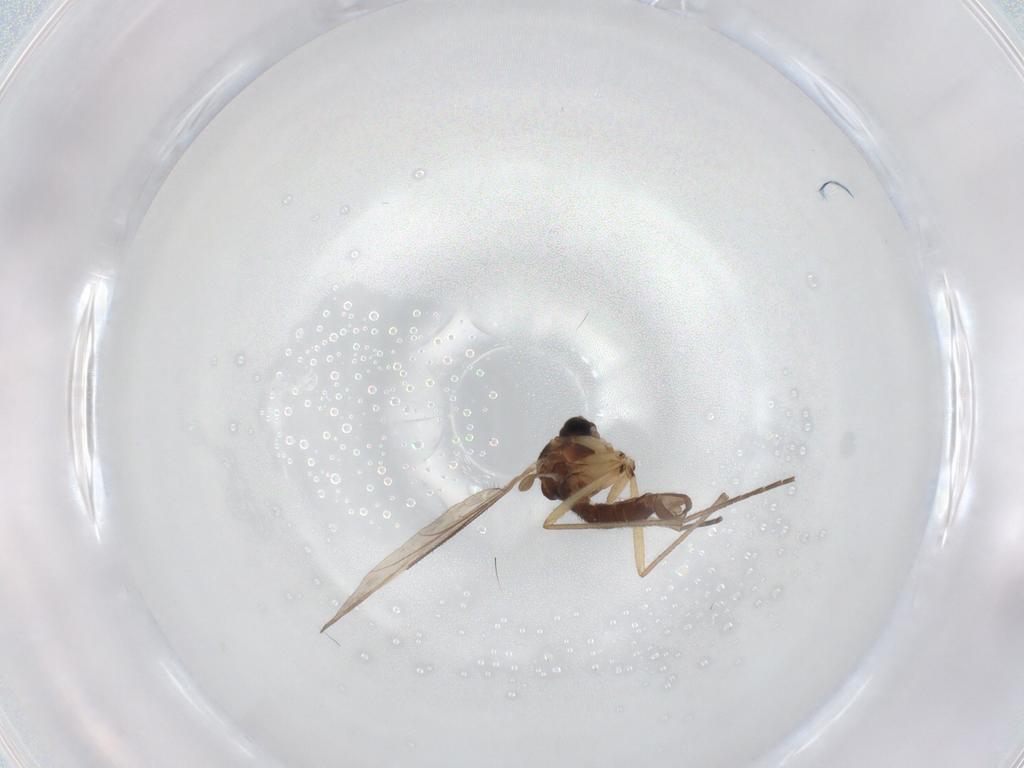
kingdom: Animalia
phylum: Arthropoda
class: Insecta
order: Diptera
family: Sciaridae
